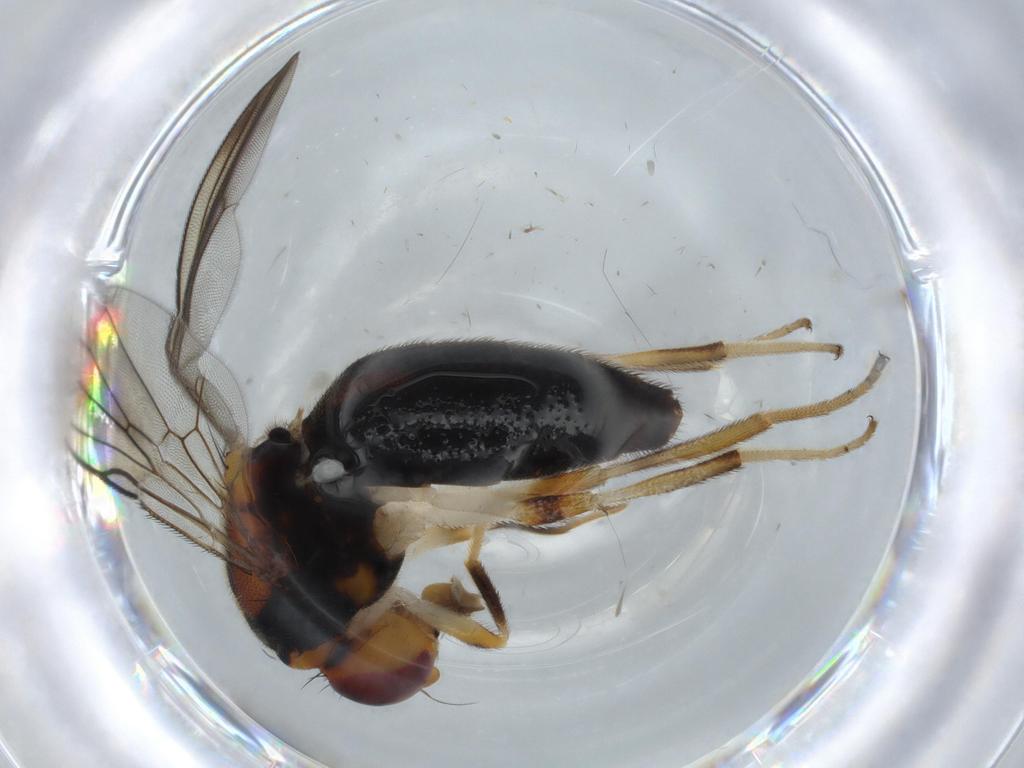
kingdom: Animalia
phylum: Arthropoda
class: Insecta
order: Diptera
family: Psilidae
